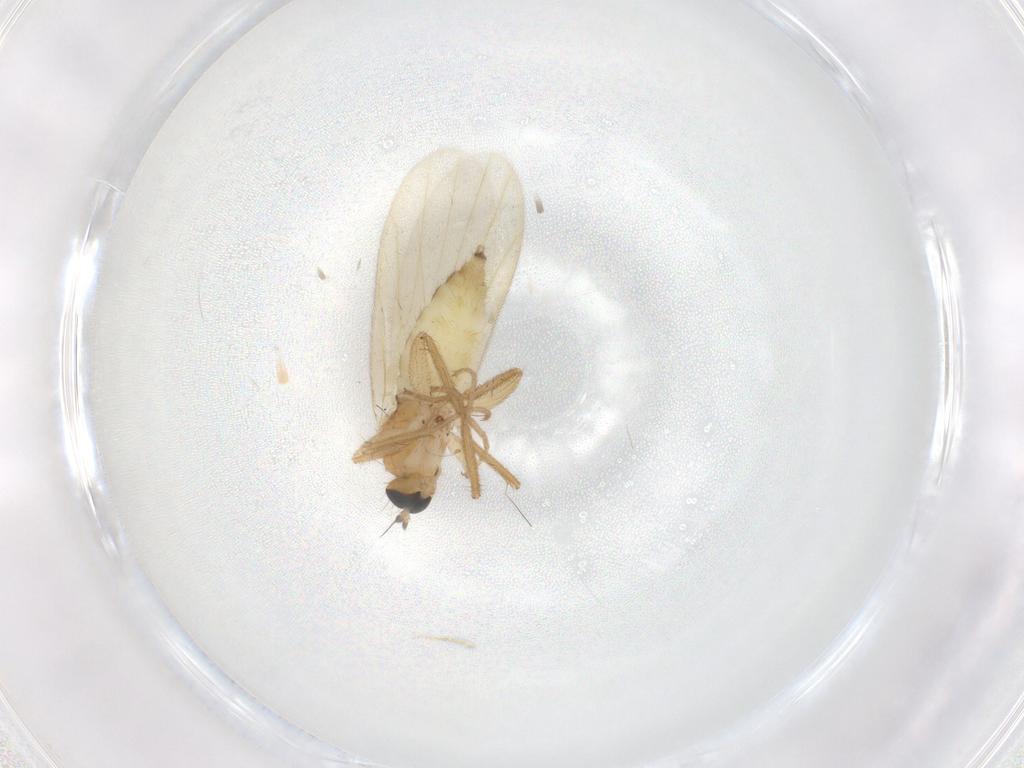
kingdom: Animalia
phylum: Arthropoda
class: Insecta
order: Diptera
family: Hybotidae
